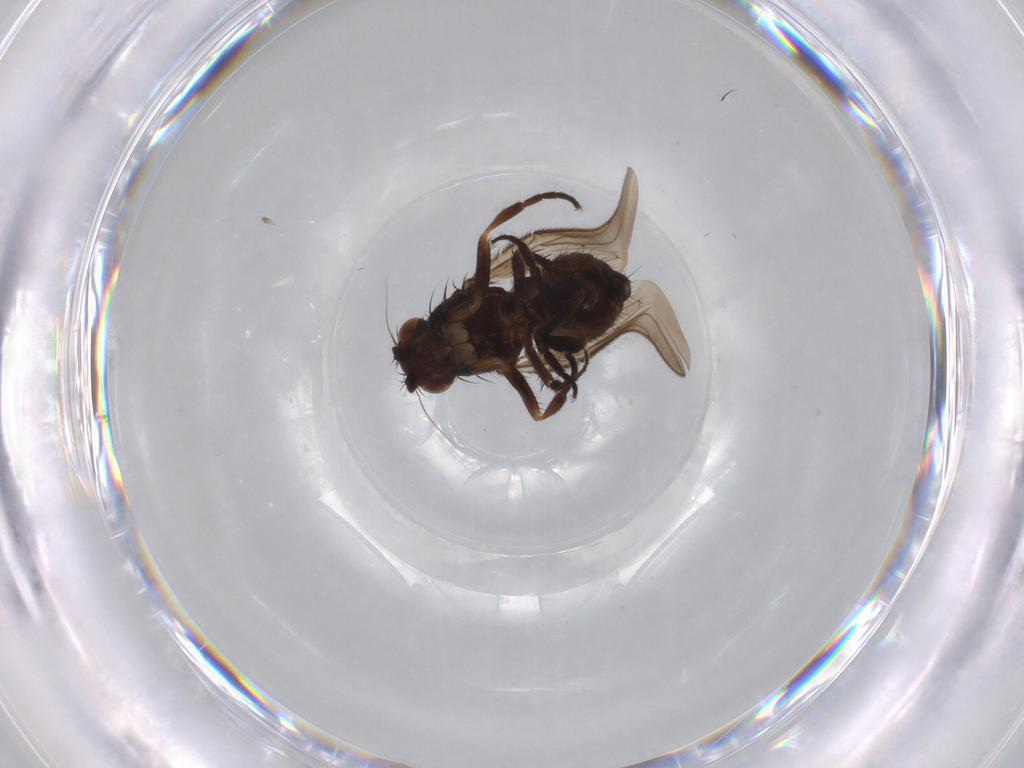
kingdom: Animalia
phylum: Arthropoda
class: Insecta
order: Diptera
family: Sphaeroceridae
